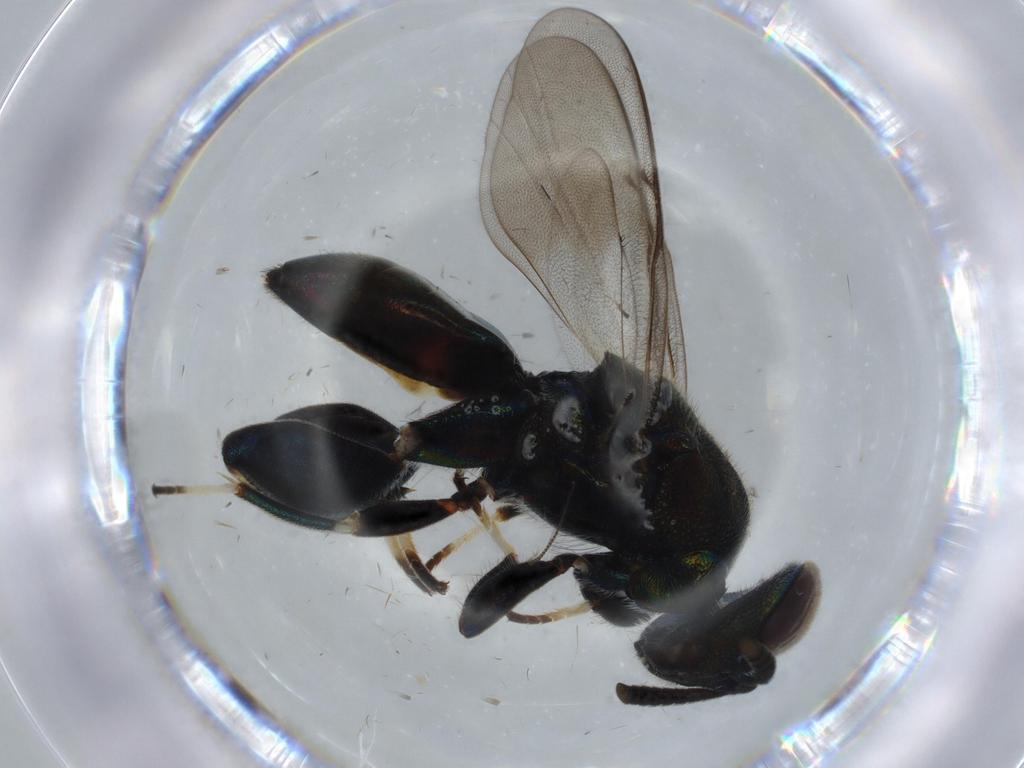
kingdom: Animalia
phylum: Arthropoda
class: Insecta
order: Hymenoptera
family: Pteromalidae
